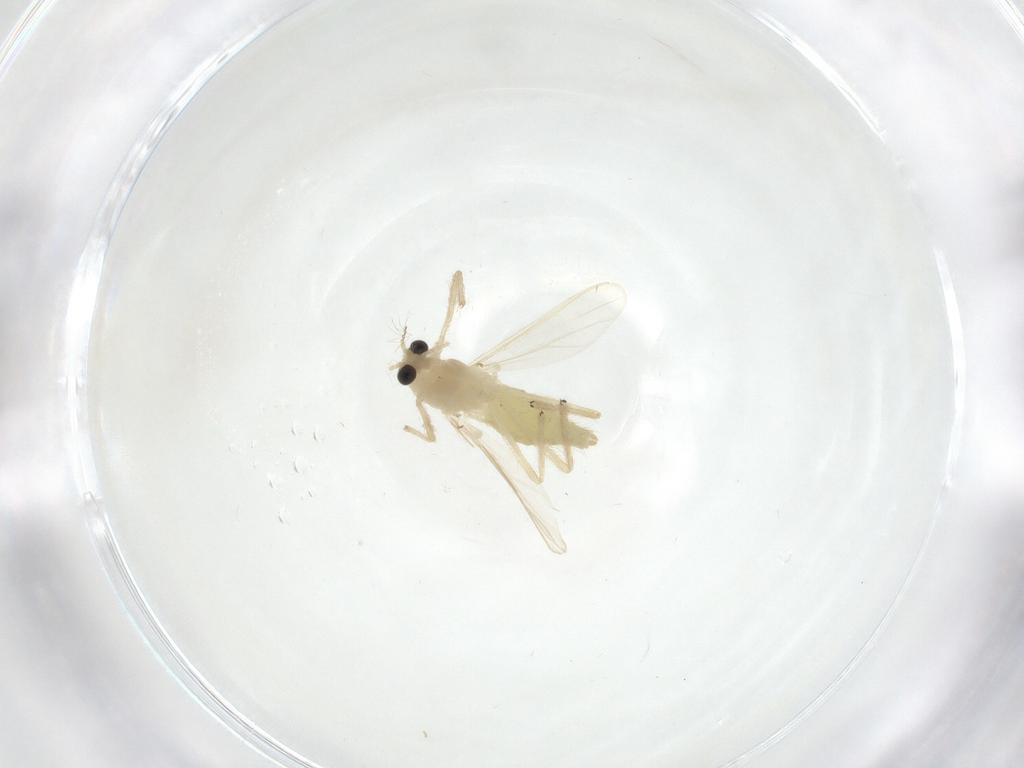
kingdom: Animalia
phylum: Arthropoda
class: Insecta
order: Diptera
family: Chironomidae
